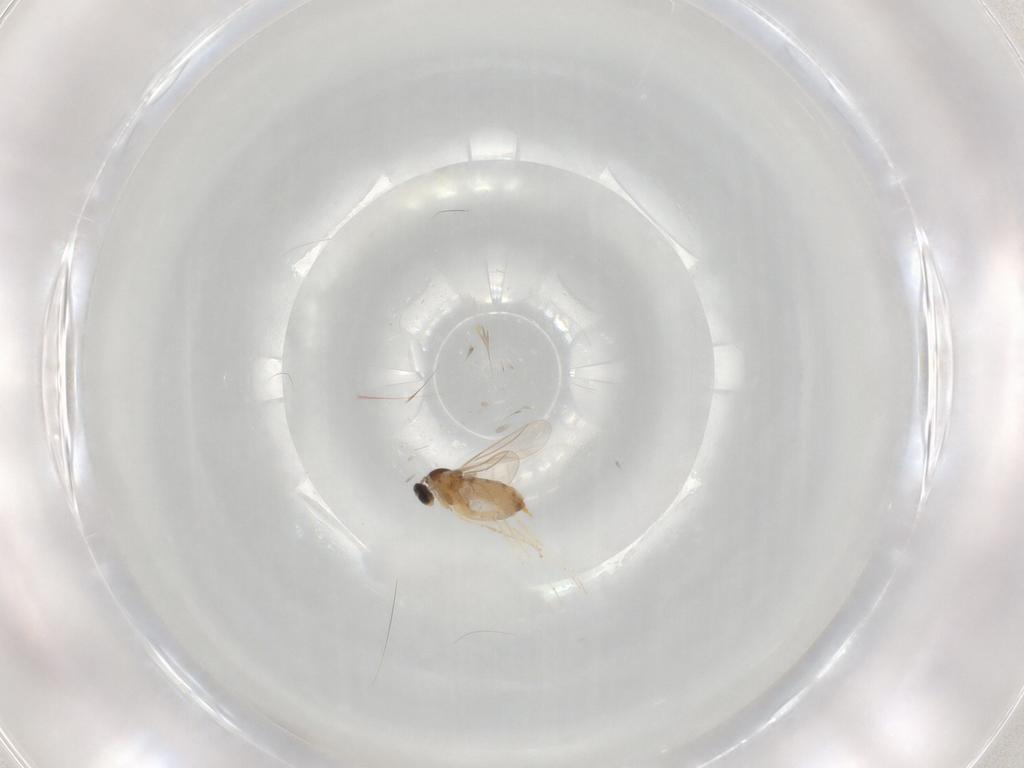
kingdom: Animalia
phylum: Arthropoda
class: Insecta
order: Diptera
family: Cecidomyiidae
